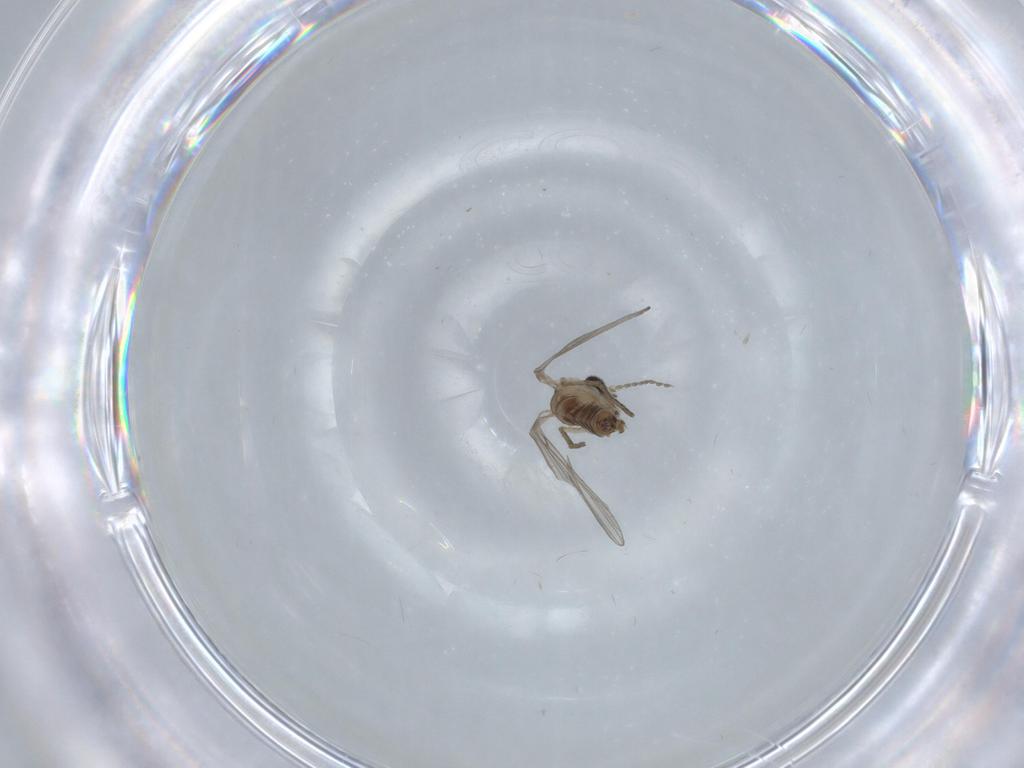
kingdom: Animalia
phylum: Arthropoda
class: Insecta
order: Diptera
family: Psychodidae
